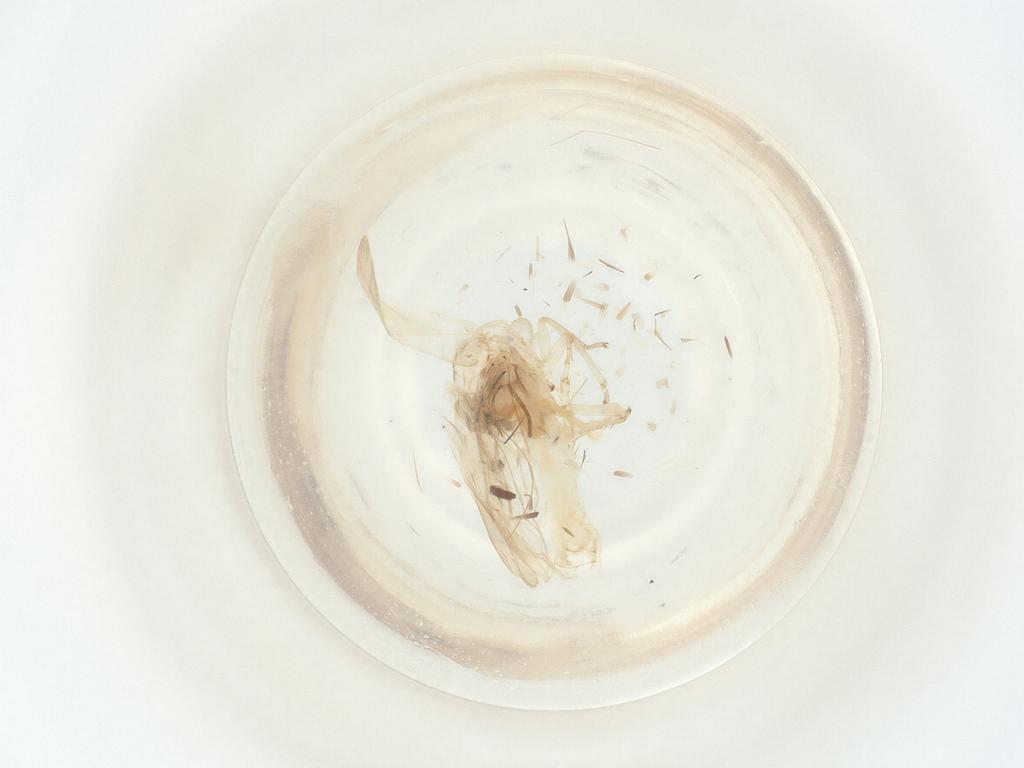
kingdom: Animalia
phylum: Arthropoda
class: Insecta
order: Hemiptera
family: Cicadellidae
